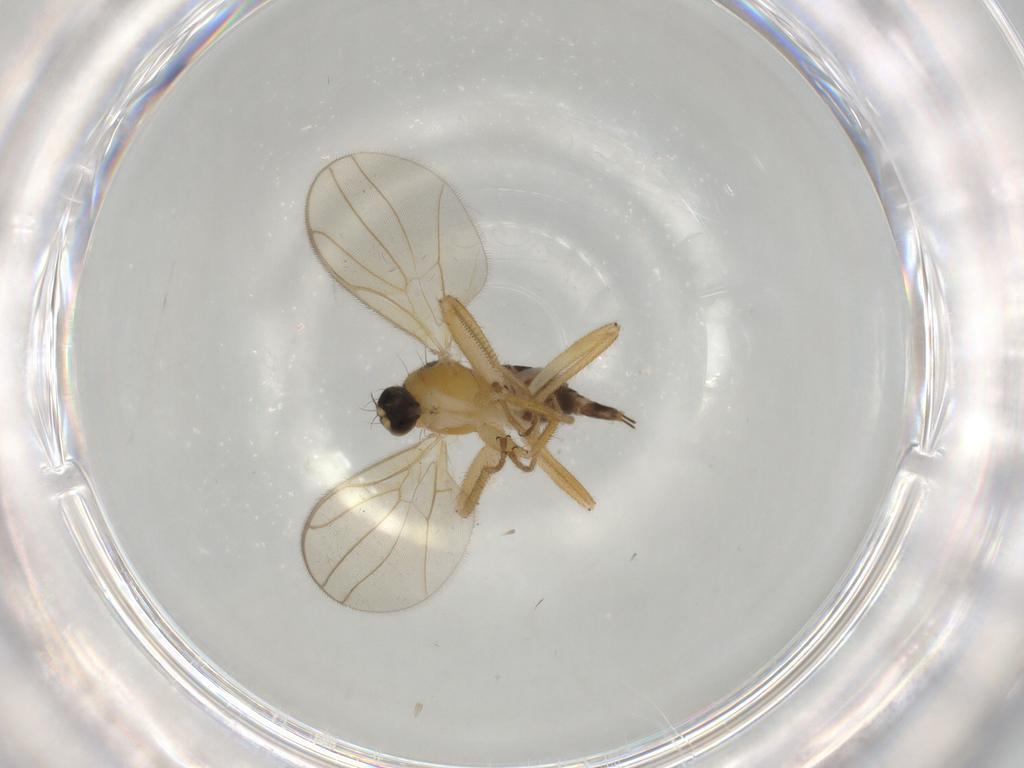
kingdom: Animalia
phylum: Arthropoda
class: Insecta
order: Diptera
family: Hybotidae
